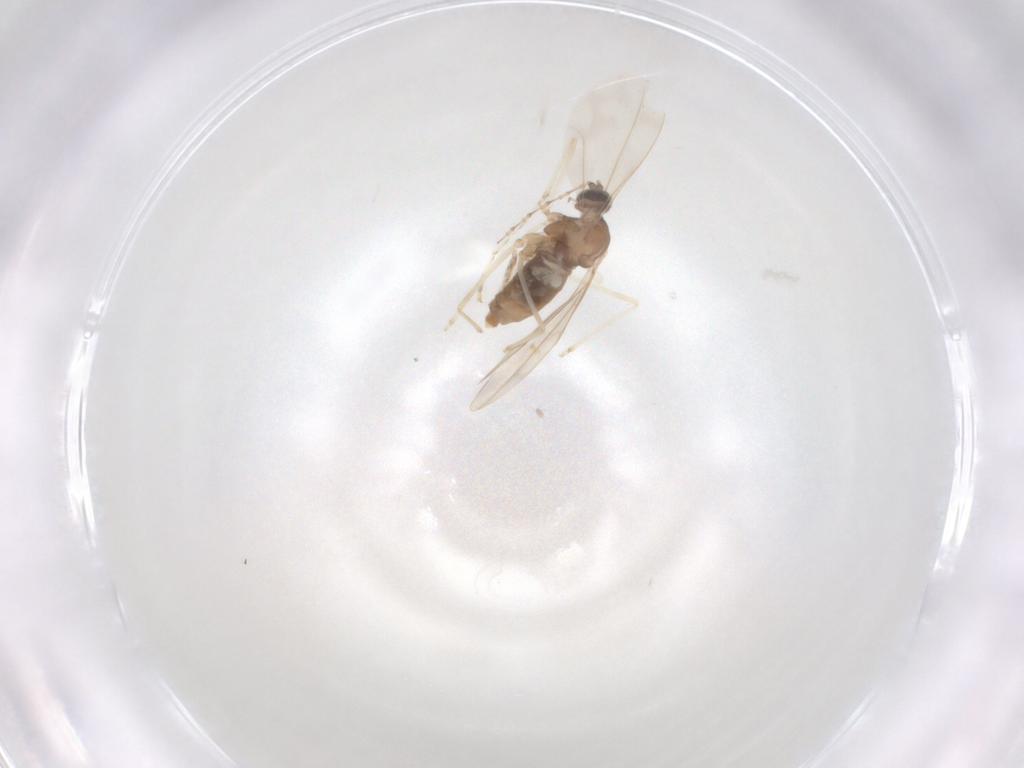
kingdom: Animalia
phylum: Arthropoda
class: Insecta
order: Diptera
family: Cecidomyiidae
